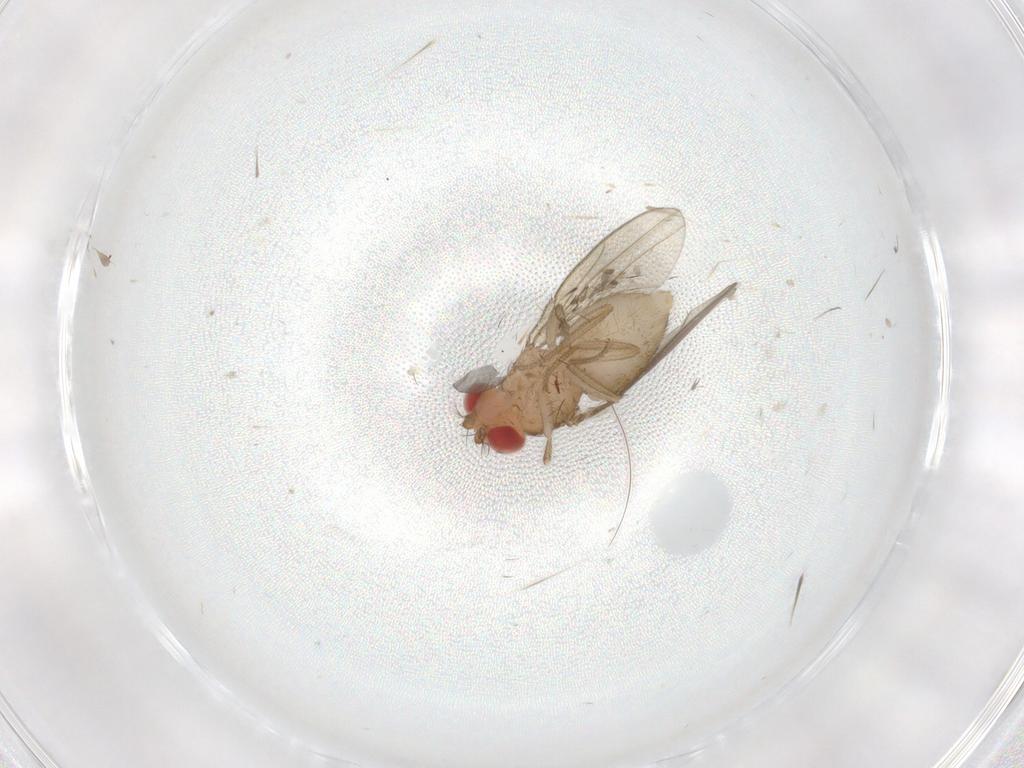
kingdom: Animalia
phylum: Arthropoda
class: Insecta
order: Diptera
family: Drosophilidae
